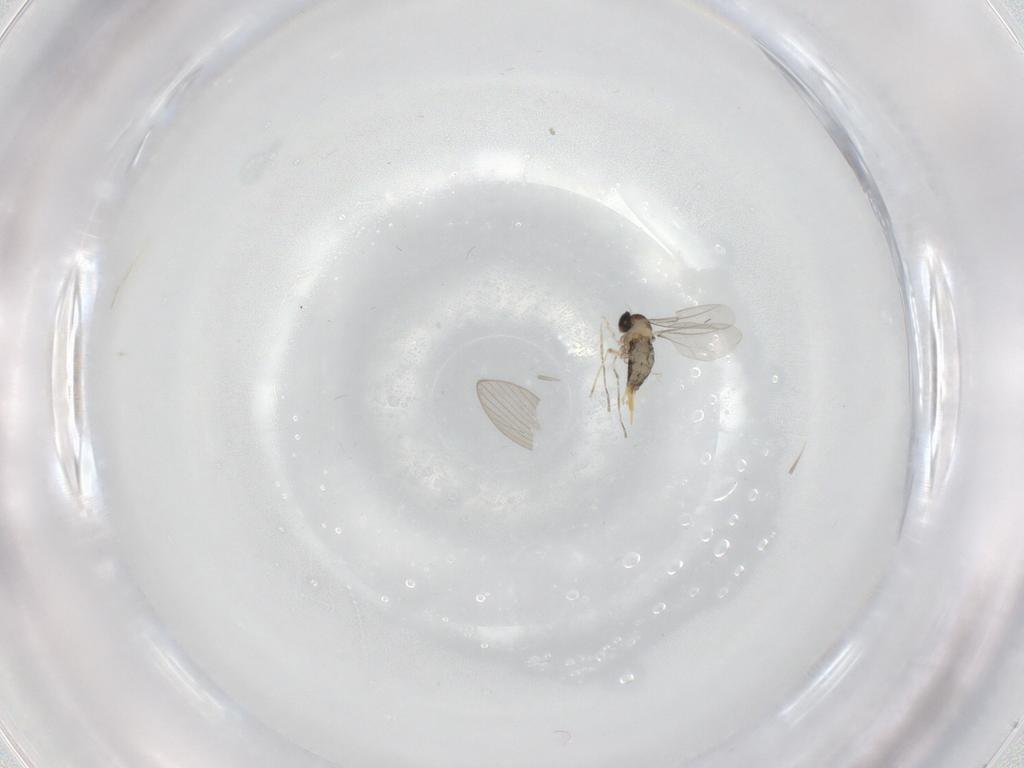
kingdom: Animalia
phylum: Arthropoda
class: Insecta
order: Diptera
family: Cecidomyiidae
